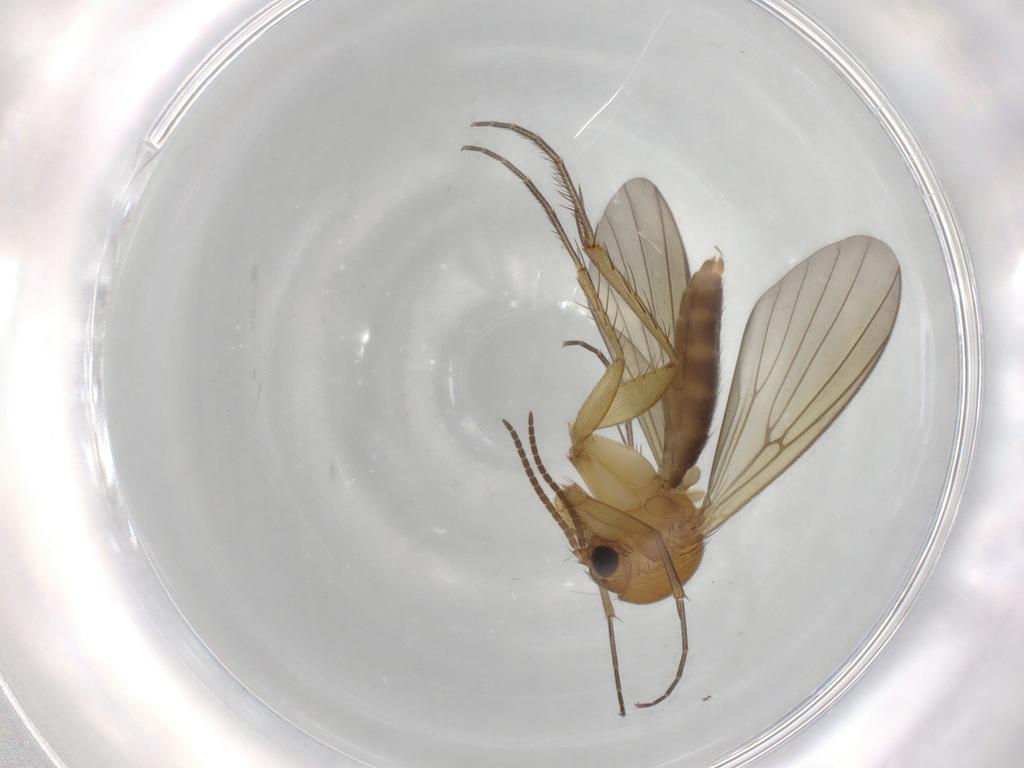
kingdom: Animalia
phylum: Arthropoda
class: Insecta
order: Diptera
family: Mycetophilidae
